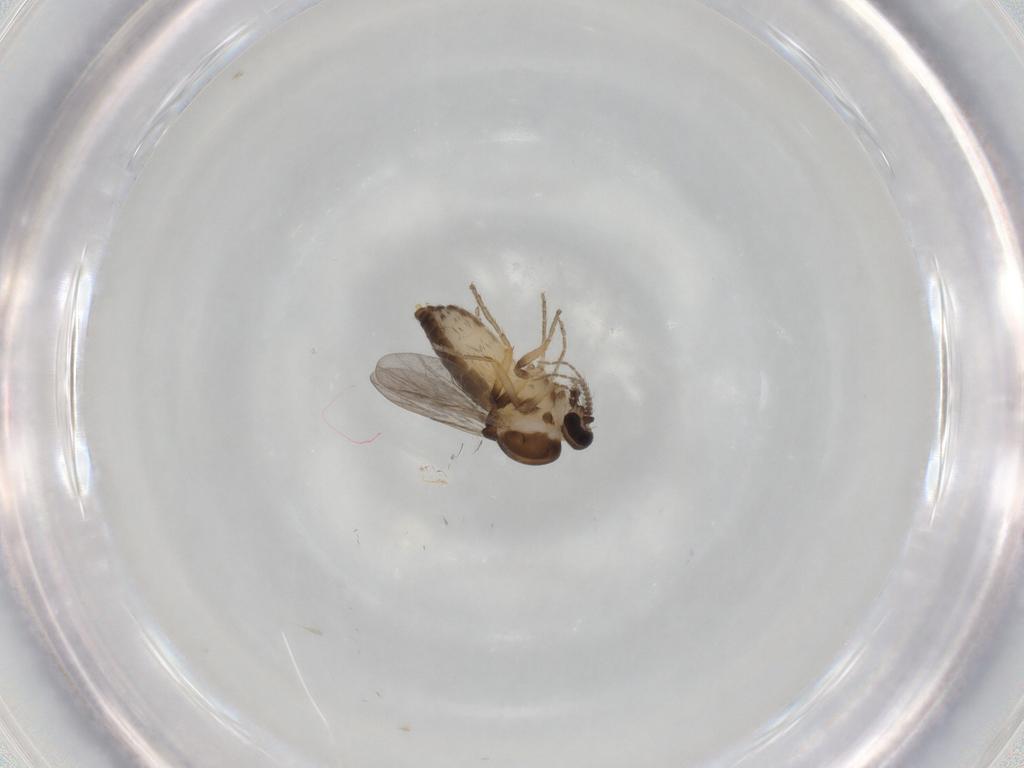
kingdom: Animalia
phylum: Arthropoda
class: Insecta
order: Diptera
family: Ceratopogonidae
